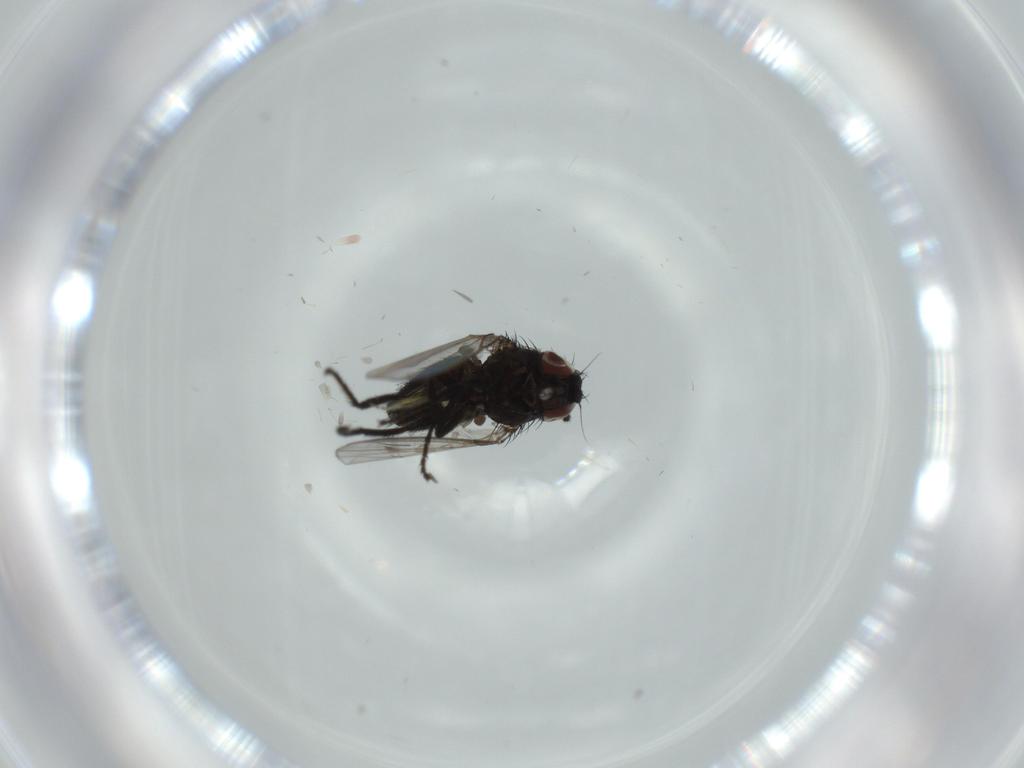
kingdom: Animalia
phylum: Arthropoda
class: Insecta
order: Diptera
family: Milichiidae
